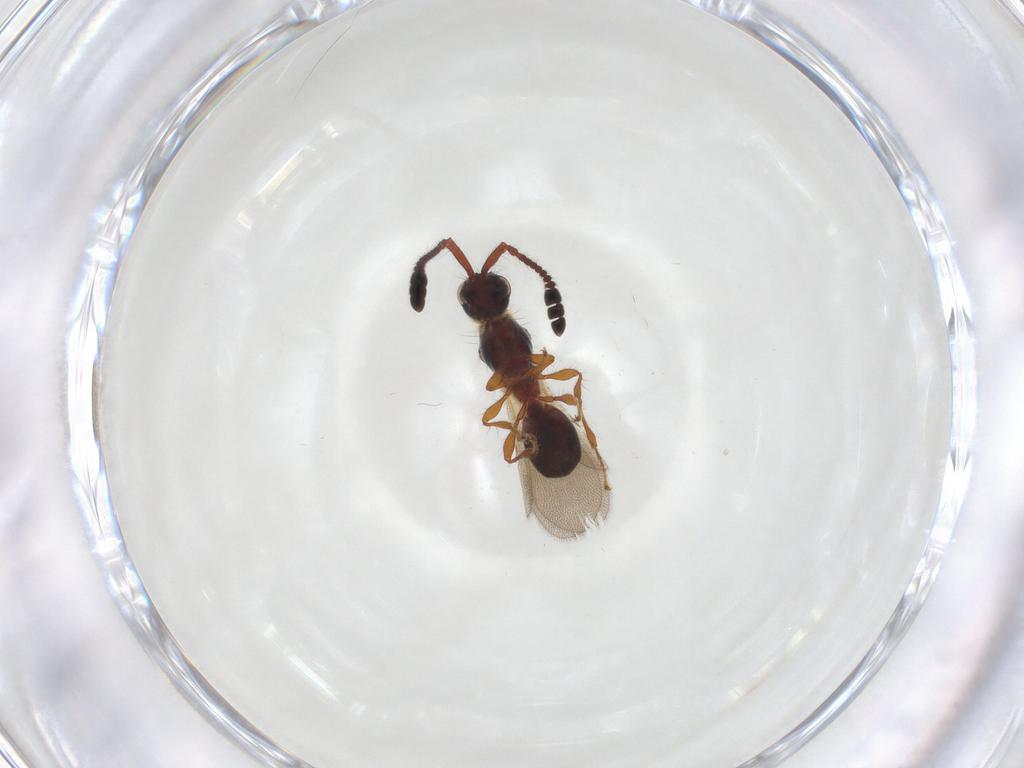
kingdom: Animalia
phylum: Arthropoda
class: Insecta
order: Hymenoptera
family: Diapriidae
